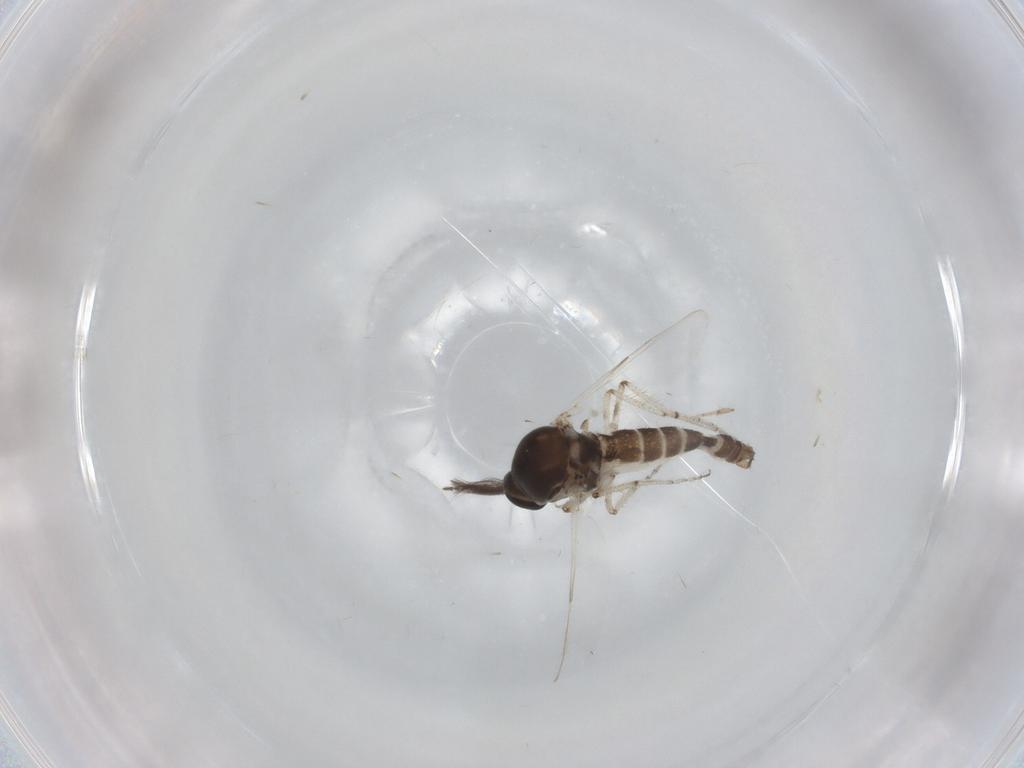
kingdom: Animalia
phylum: Arthropoda
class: Insecta
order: Diptera
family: Ceratopogonidae
